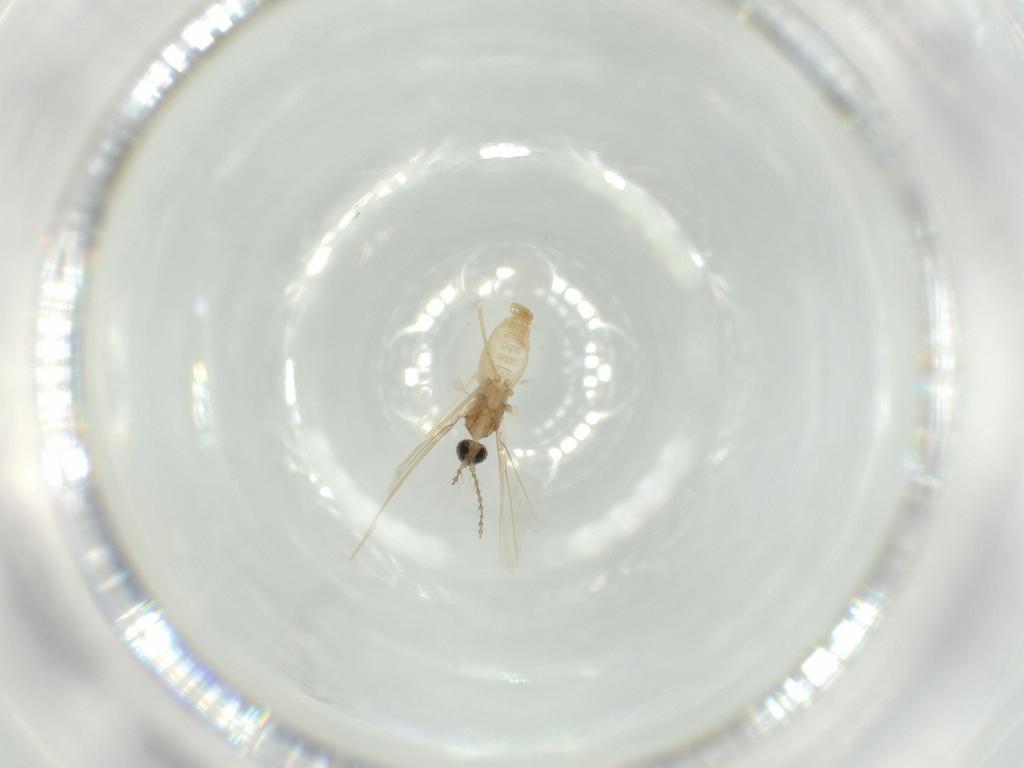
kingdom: Animalia
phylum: Arthropoda
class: Insecta
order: Diptera
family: Cecidomyiidae
